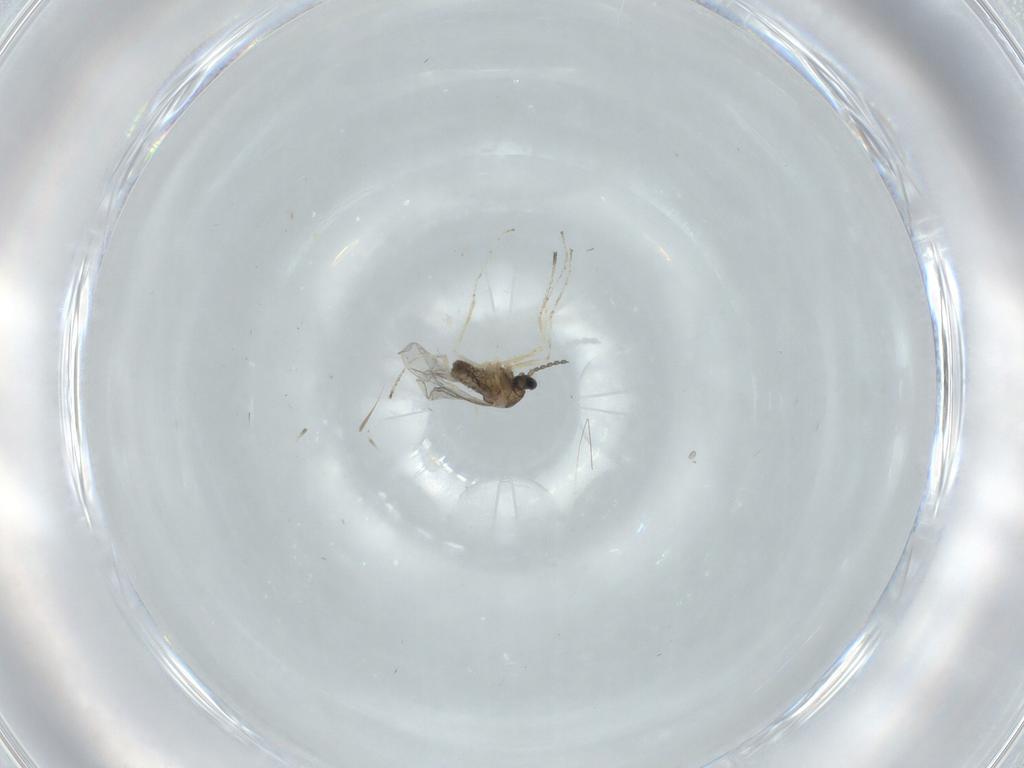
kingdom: Animalia
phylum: Arthropoda
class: Insecta
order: Diptera
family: Cecidomyiidae
